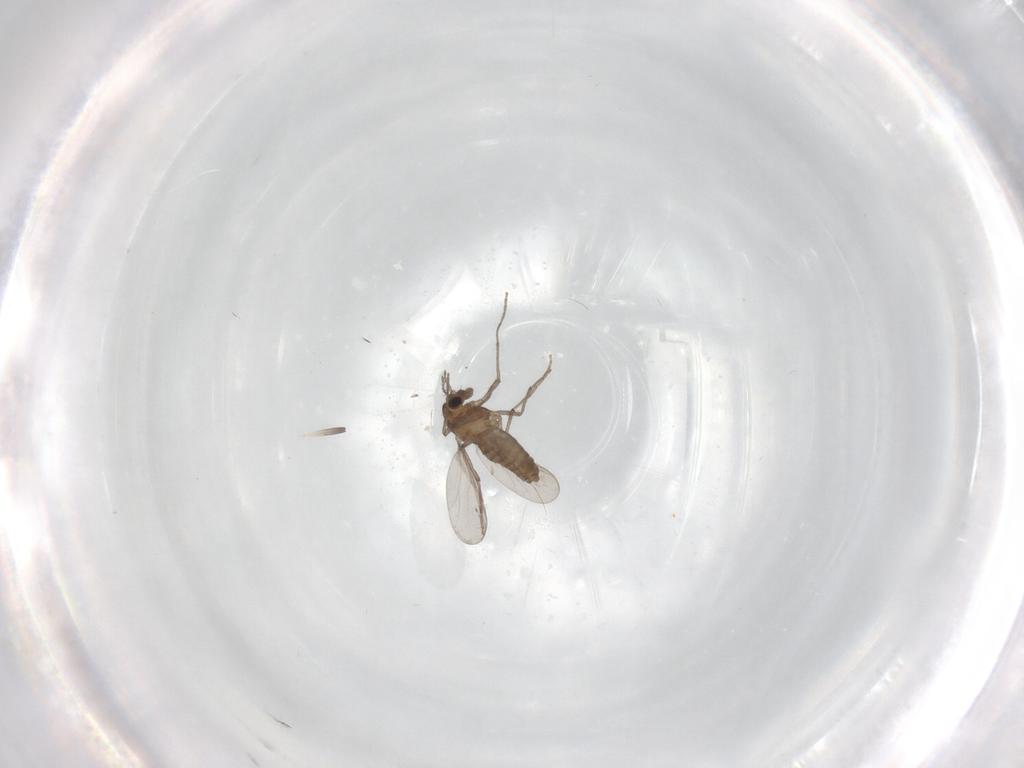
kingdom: Animalia
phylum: Arthropoda
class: Insecta
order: Diptera
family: Chironomidae
